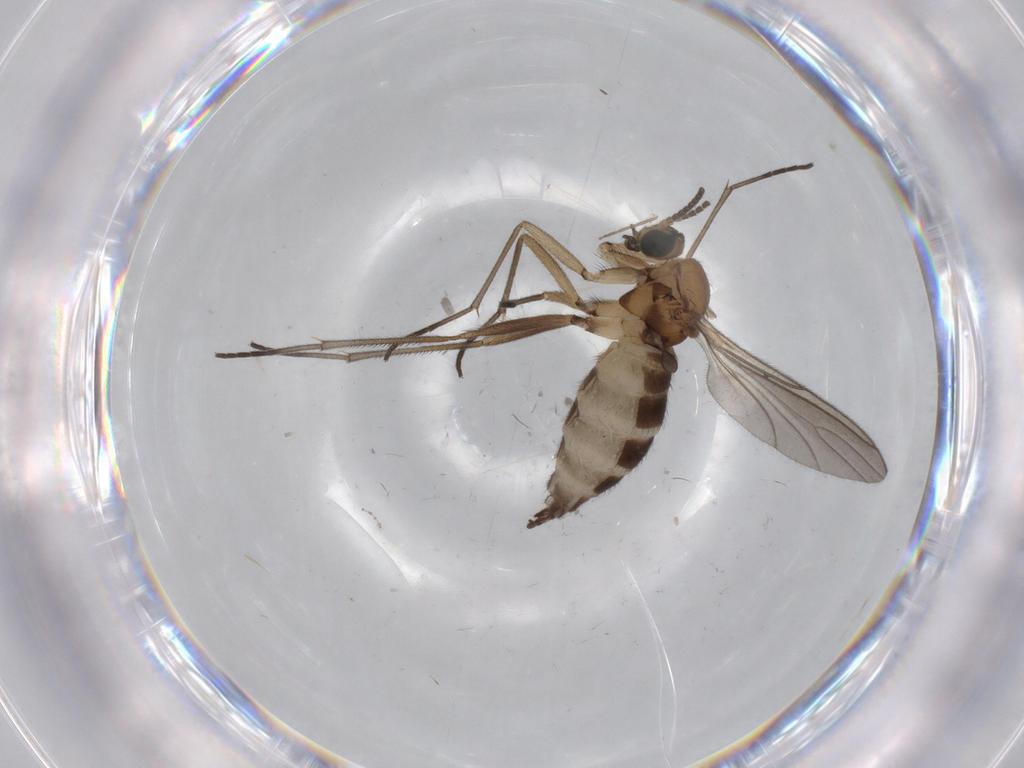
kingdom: Animalia
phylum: Arthropoda
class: Insecta
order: Diptera
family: Sciaridae
